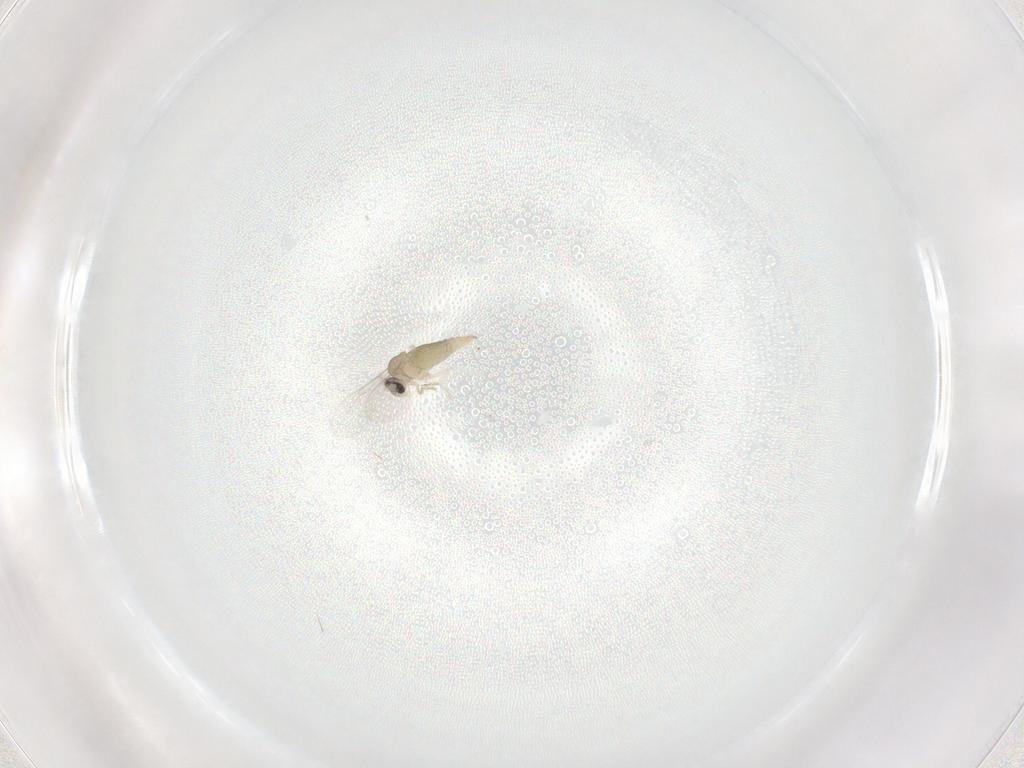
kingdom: Animalia
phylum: Arthropoda
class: Insecta
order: Diptera
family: Cecidomyiidae
